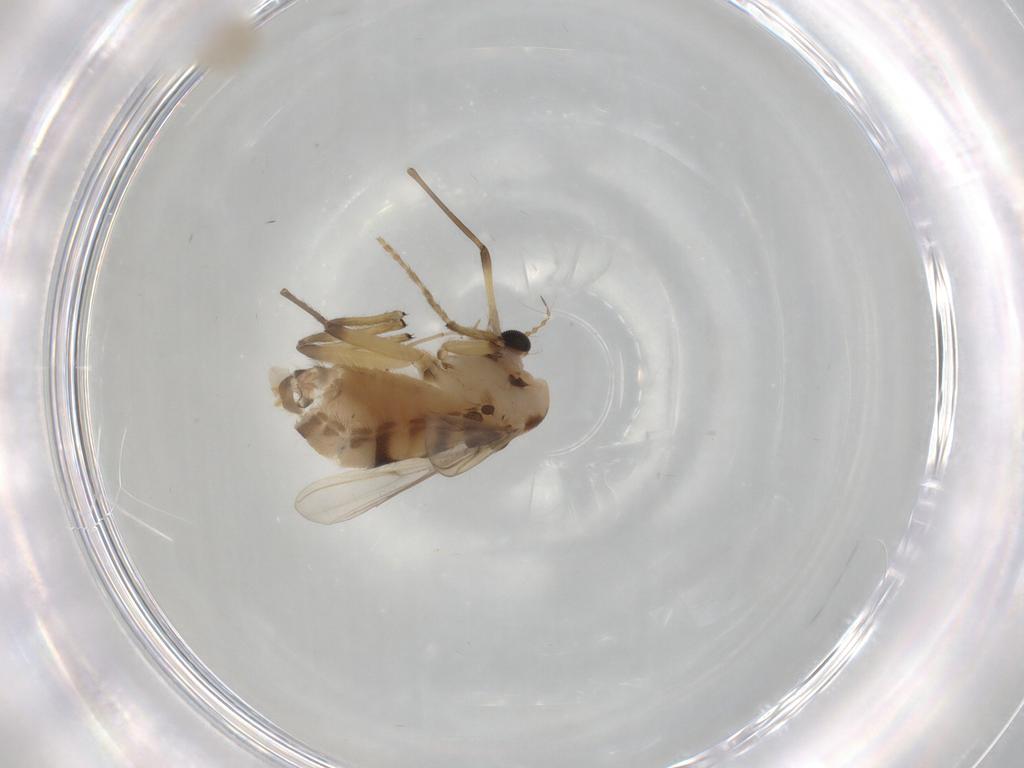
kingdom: Animalia
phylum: Arthropoda
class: Insecta
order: Diptera
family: Chironomidae
